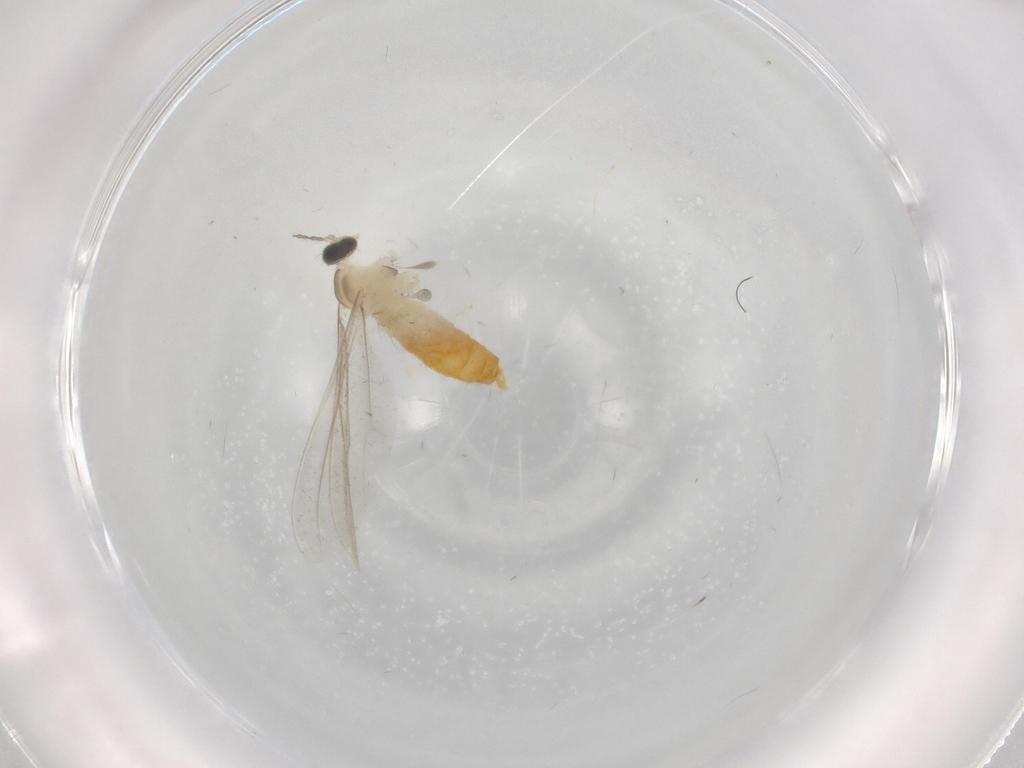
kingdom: Animalia
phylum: Arthropoda
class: Insecta
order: Diptera
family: Cecidomyiidae
